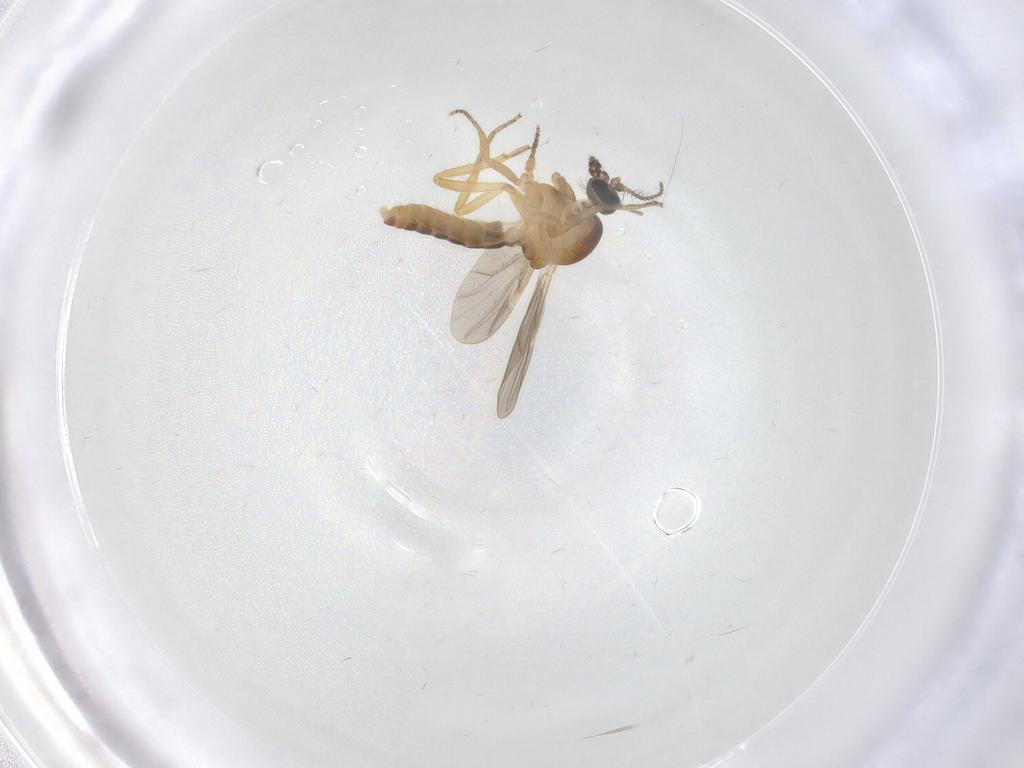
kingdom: Animalia
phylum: Arthropoda
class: Insecta
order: Diptera
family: Ceratopogonidae
